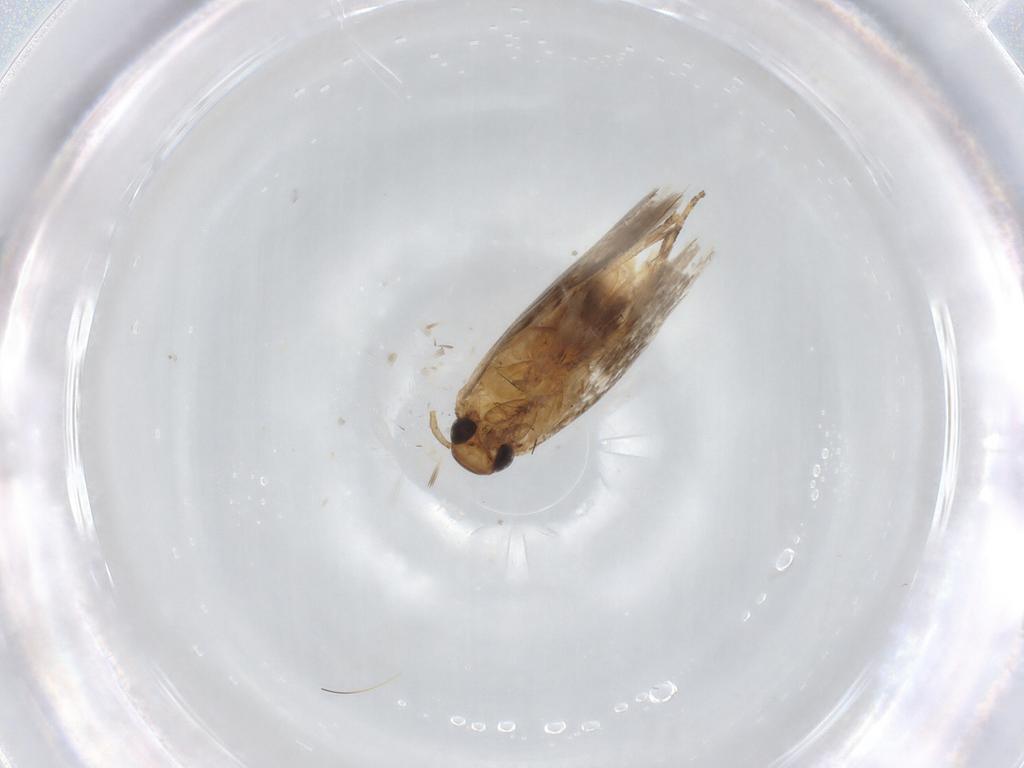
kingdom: Animalia
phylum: Arthropoda
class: Insecta
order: Lepidoptera
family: Gelechiidae
